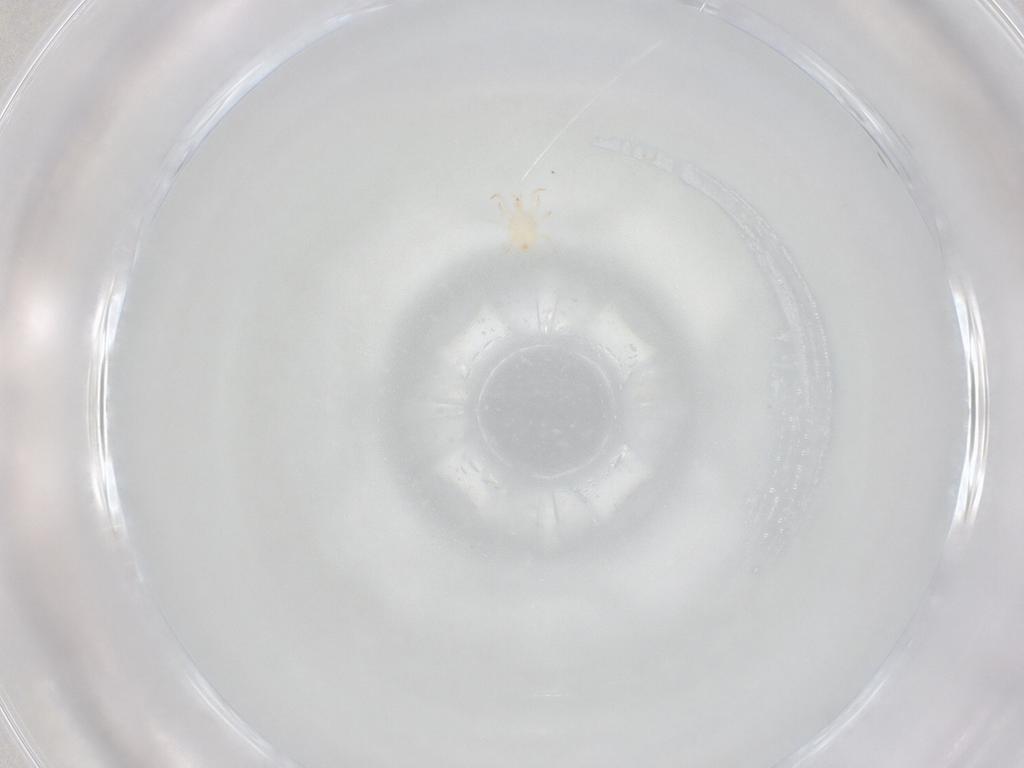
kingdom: Animalia
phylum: Arthropoda
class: Arachnida
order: Mesostigmata
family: Phytoseiidae
